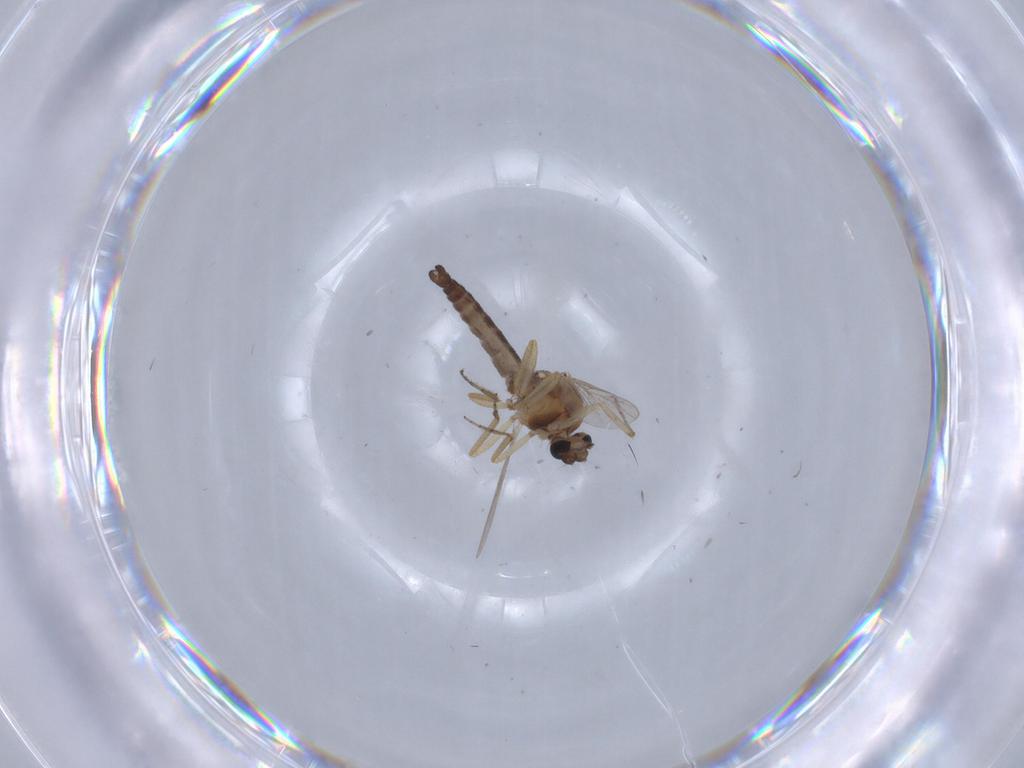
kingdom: Animalia
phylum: Arthropoda
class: Insecta
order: Diptera
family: Ceratopogonidae
